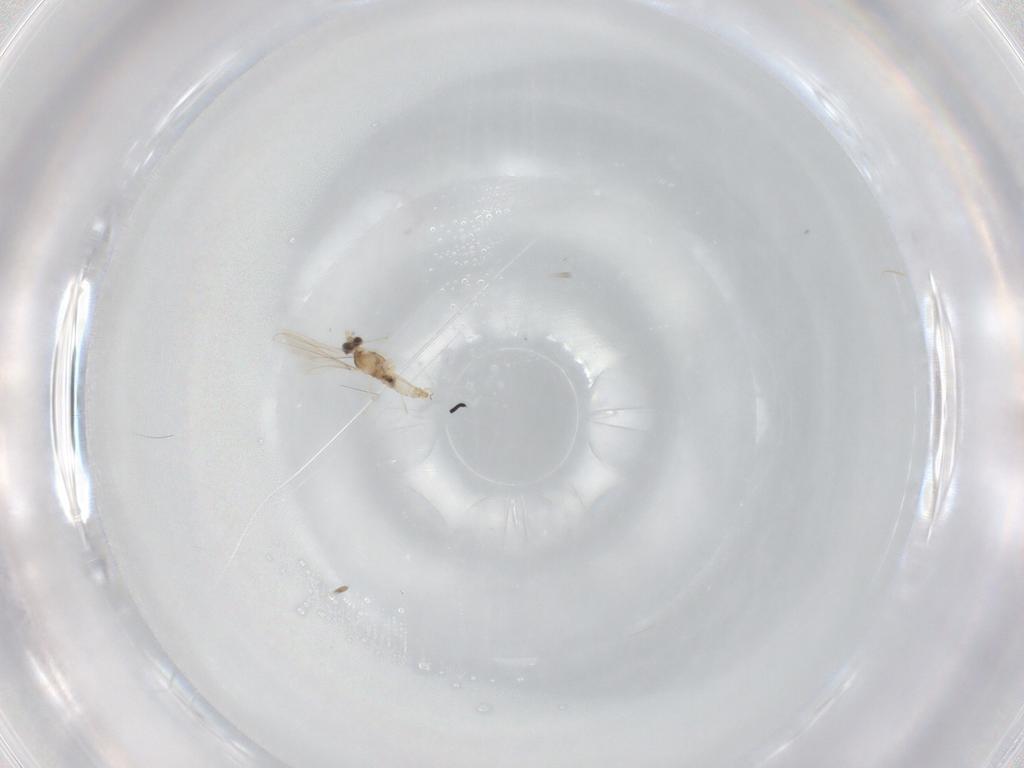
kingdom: Animalia
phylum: Arthropoda
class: Insecta
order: Diptera
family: Cecidomyiidae
